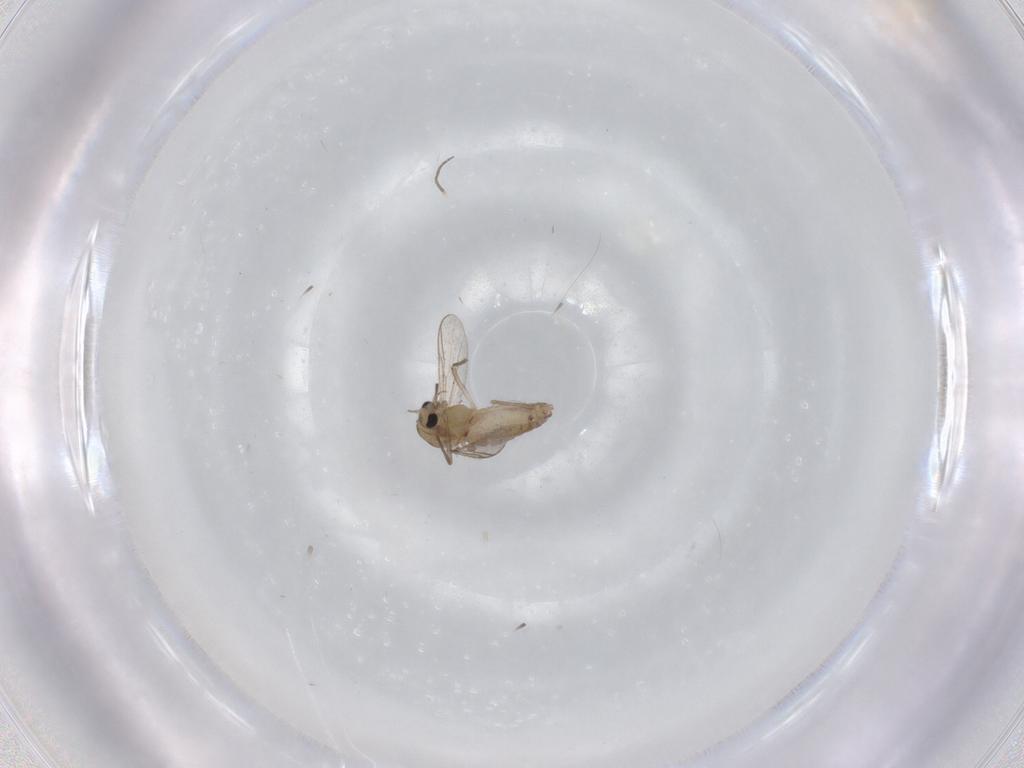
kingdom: Animalia
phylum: Arthropoda
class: Insecta
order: Diptera
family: Chironomidae
